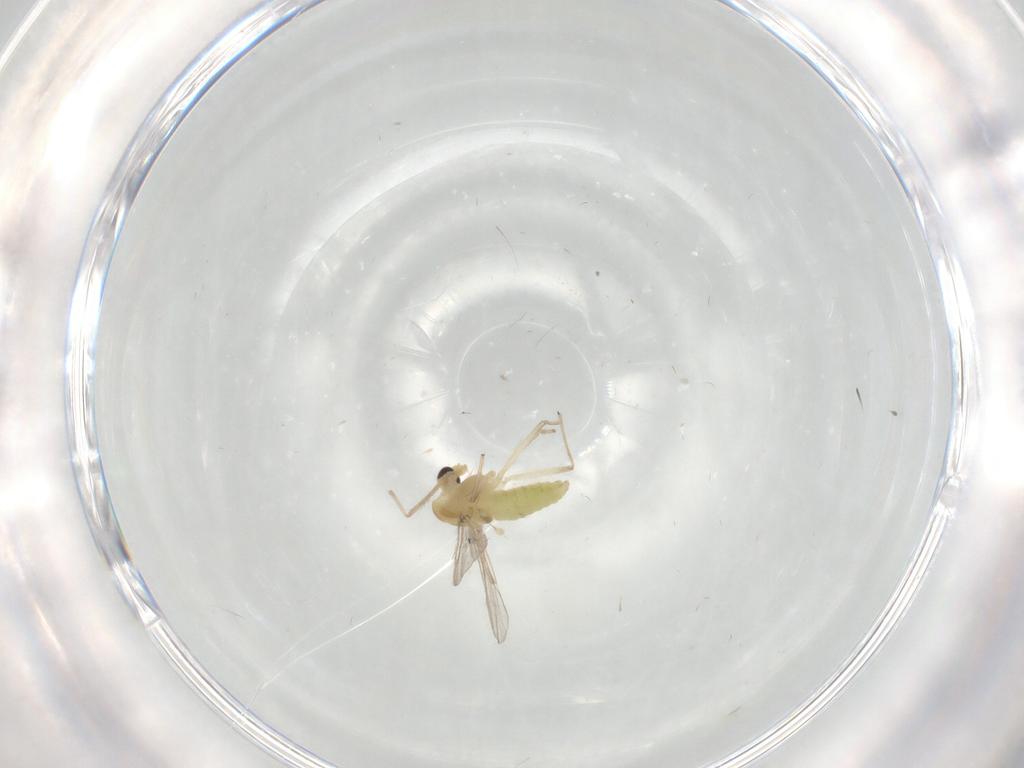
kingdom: Animalia
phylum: Arthropoda
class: Insecta
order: Diptera
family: Chironomidae
